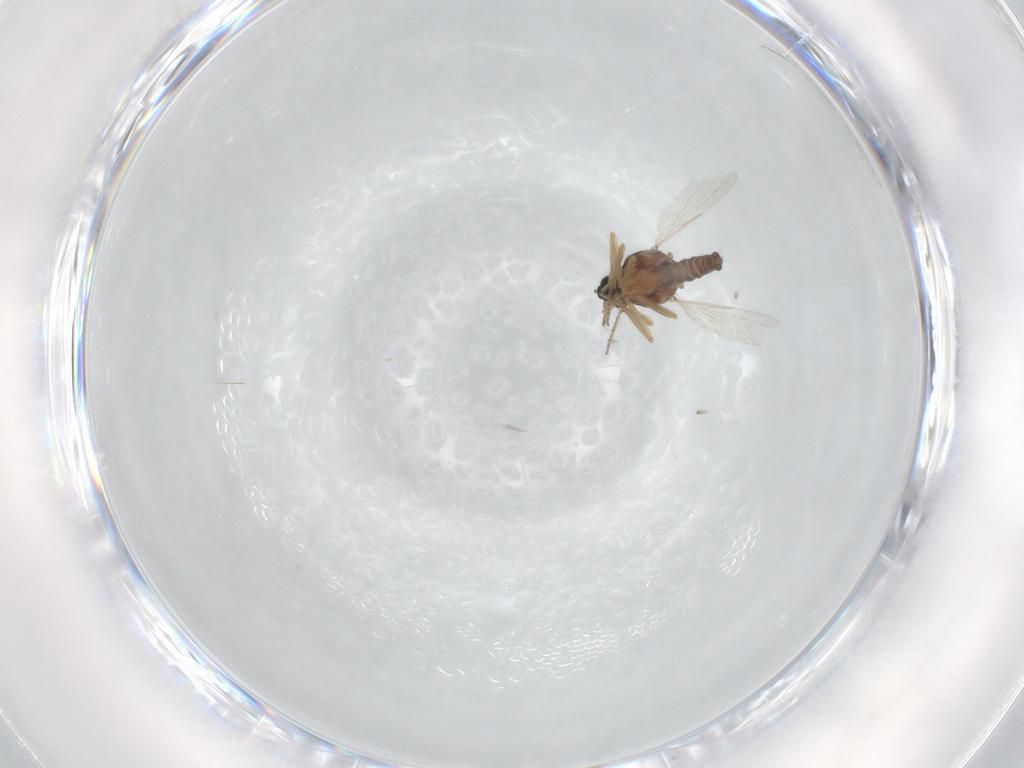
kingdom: Animalia
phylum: Arthropoda
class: Insecta
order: Diptera
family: Ceratopogonidae
